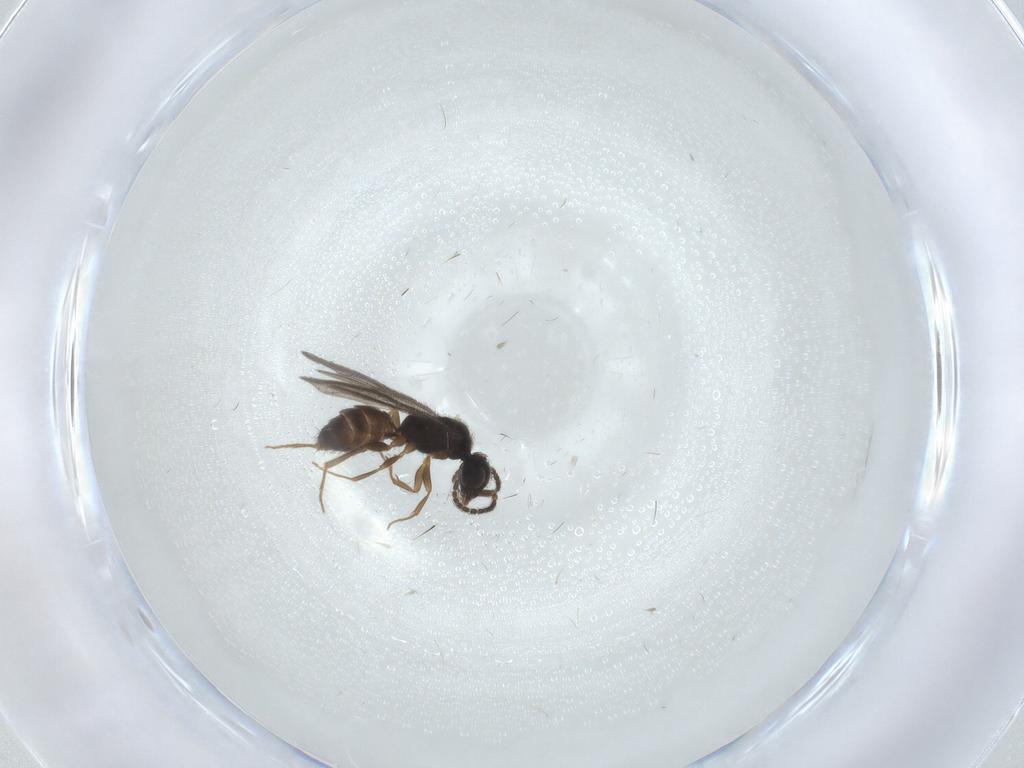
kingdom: Animalia
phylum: Arthropoda
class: Insecta
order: Hymenoptera
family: Bethylidae
